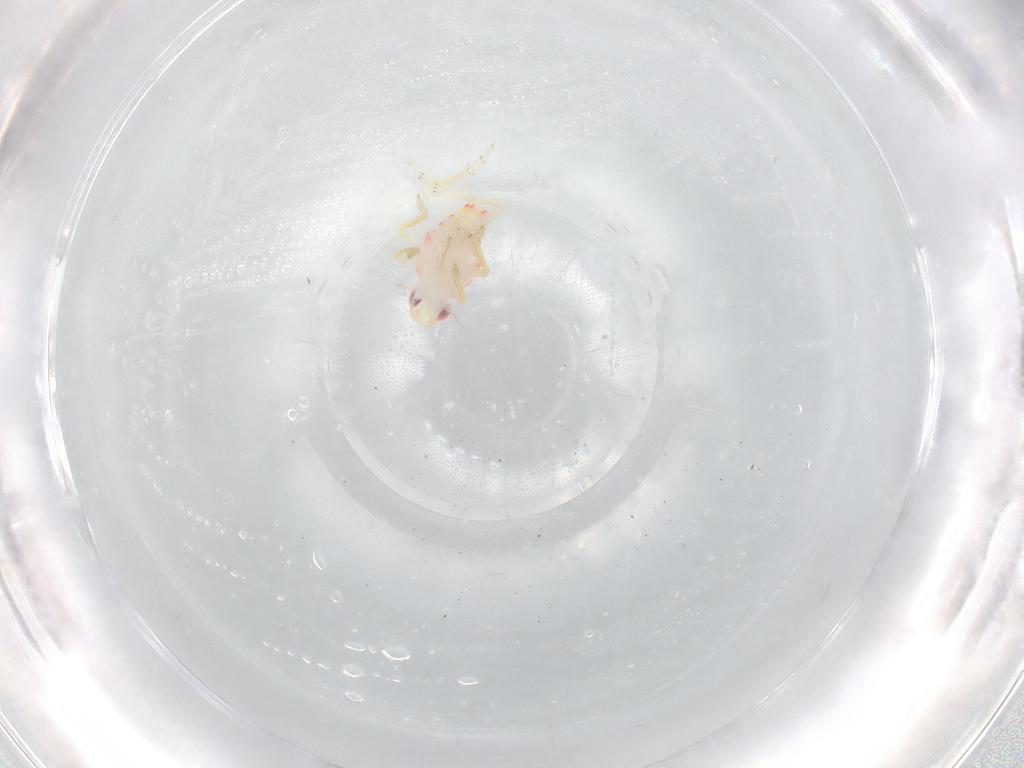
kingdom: Animalia
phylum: Arthropoda
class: Insecta
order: Hemiptera
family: Tropiduchidae
